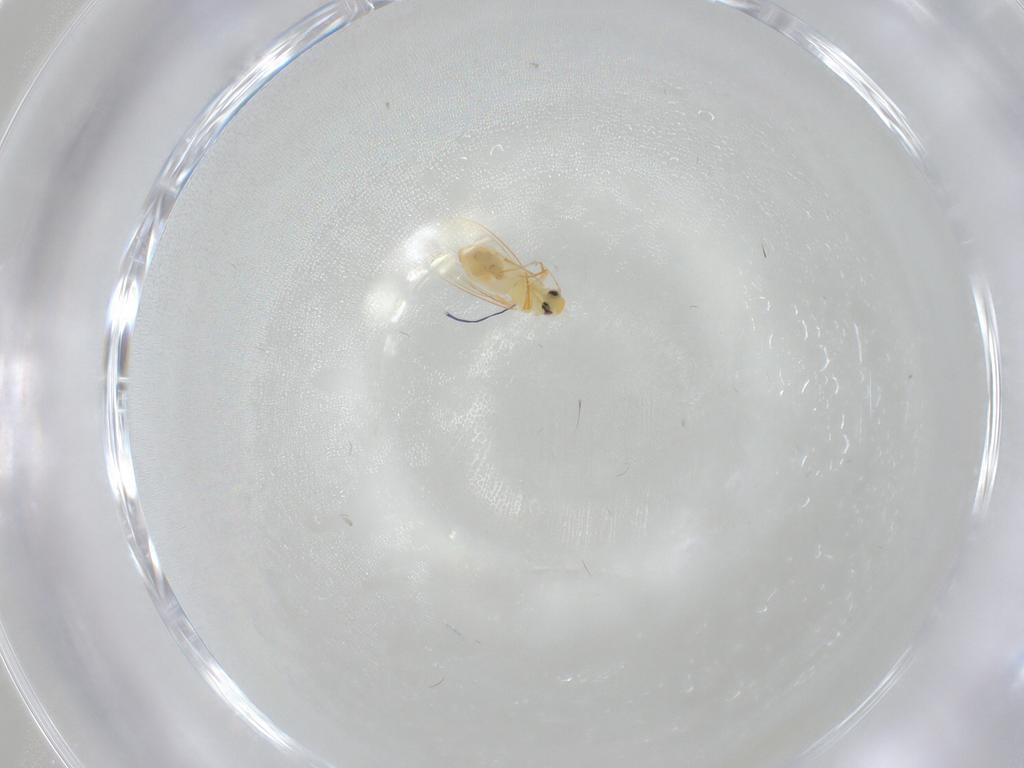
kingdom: Animalia
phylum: Arthropoda
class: Insecta
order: Hemiptera
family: Aleyrodidae
